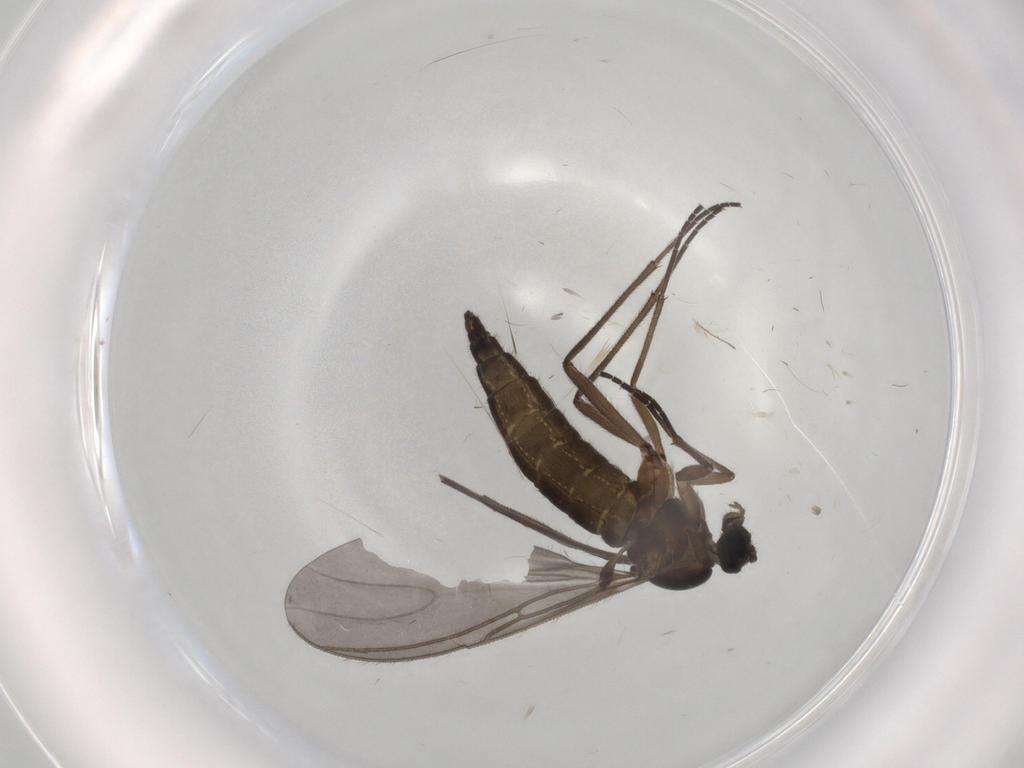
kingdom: Animalia
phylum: Arthropoda
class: Insecta
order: Diptera
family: Sciaridae
